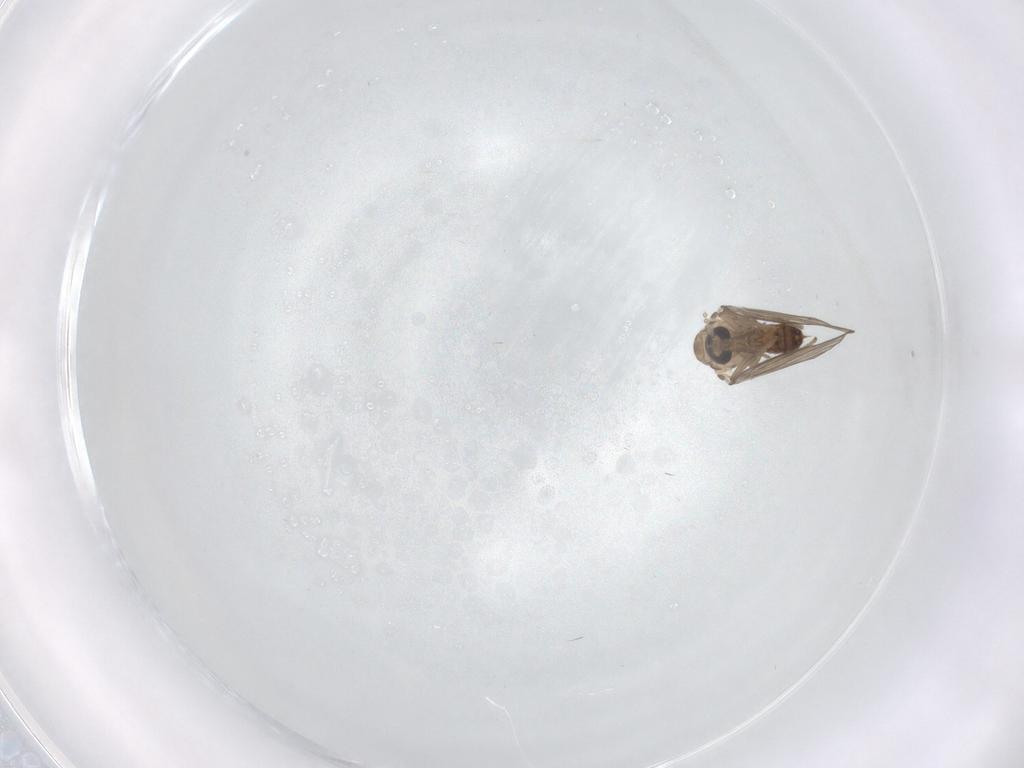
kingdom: Animalia
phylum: Arthropoda
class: Insecta
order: Diptera
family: Psychodidae
